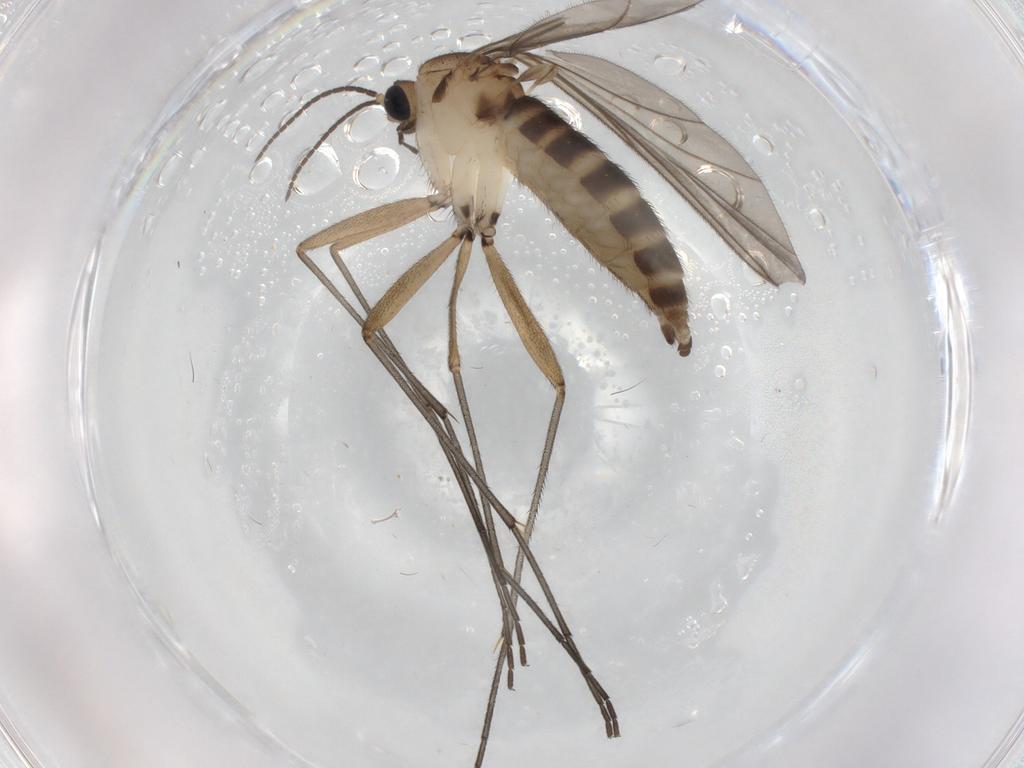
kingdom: Animalia
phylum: Arthropoda
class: Insecta
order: Diptera
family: Sciaridae
